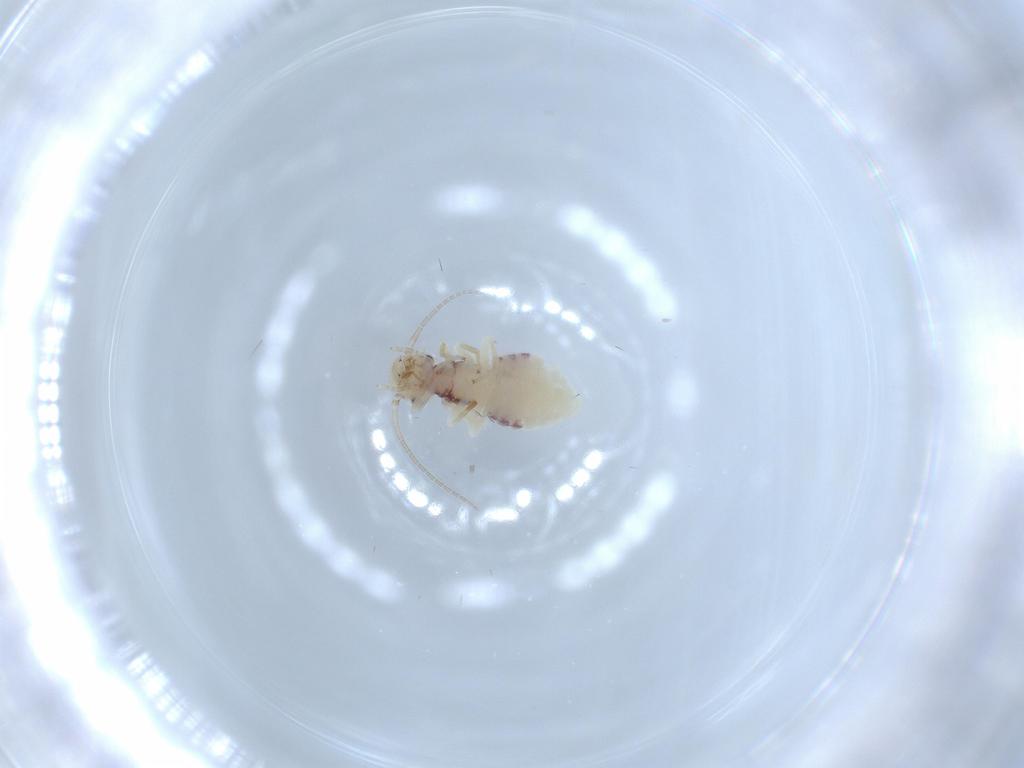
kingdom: Animalia
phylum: Arthropoda
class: Insecta
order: Psocodea
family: Caeciliusidae
